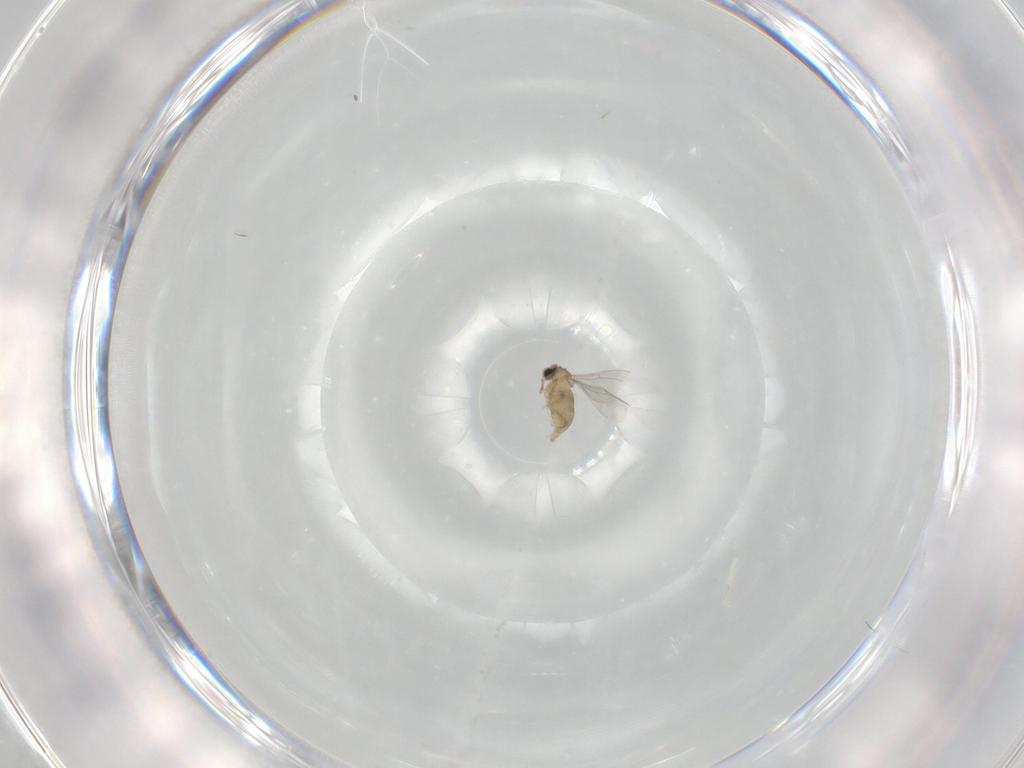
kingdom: Animalia
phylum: Arthropoda
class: Insecta
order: Diptera
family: Cecidomyiidae
